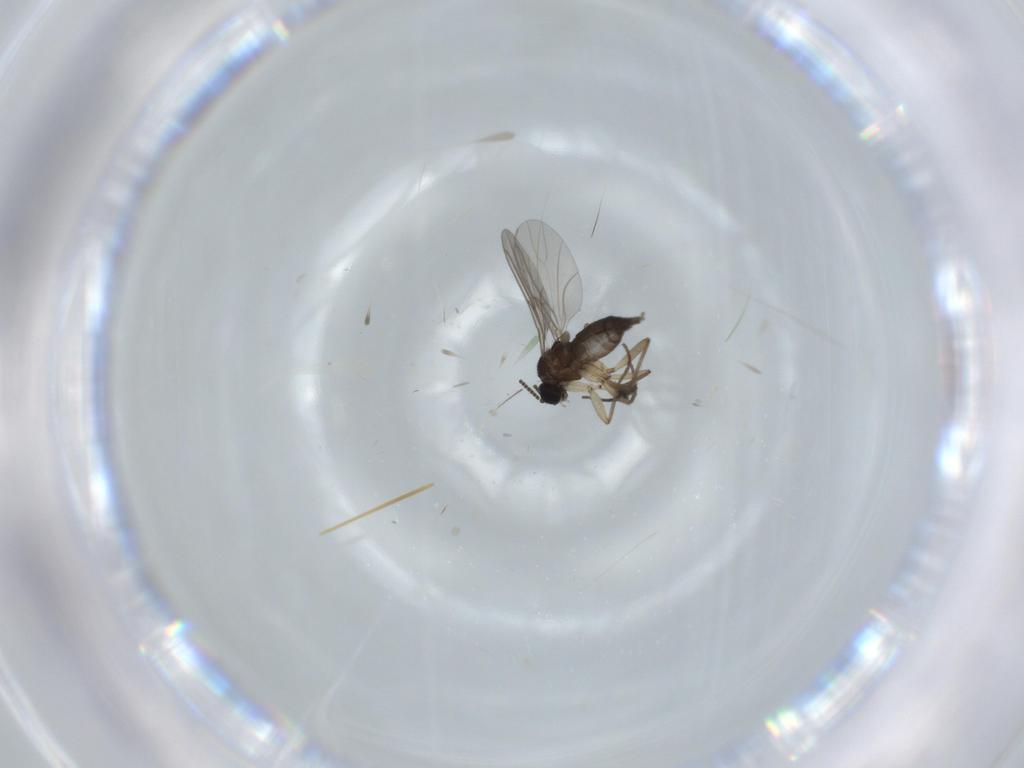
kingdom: Animalia
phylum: Arthropoda
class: Insecta
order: Diptera
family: Sciaridae
